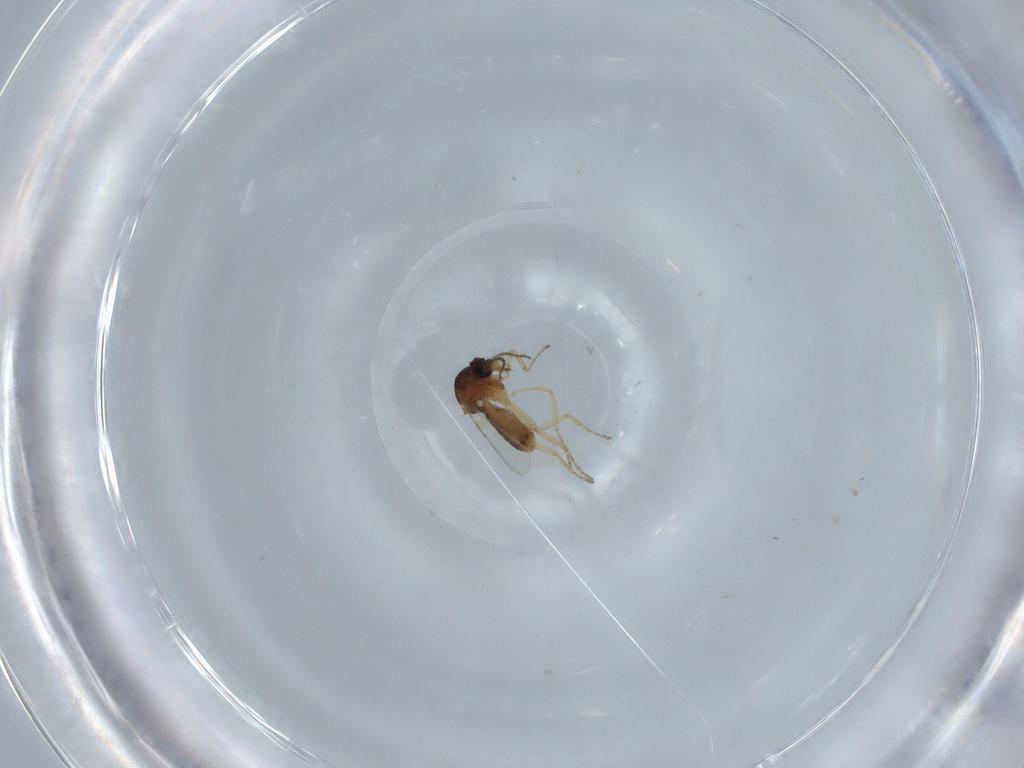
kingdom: Animalia
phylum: Arthropoda
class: Insecta
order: Diptera
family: Ceratopogonidae
